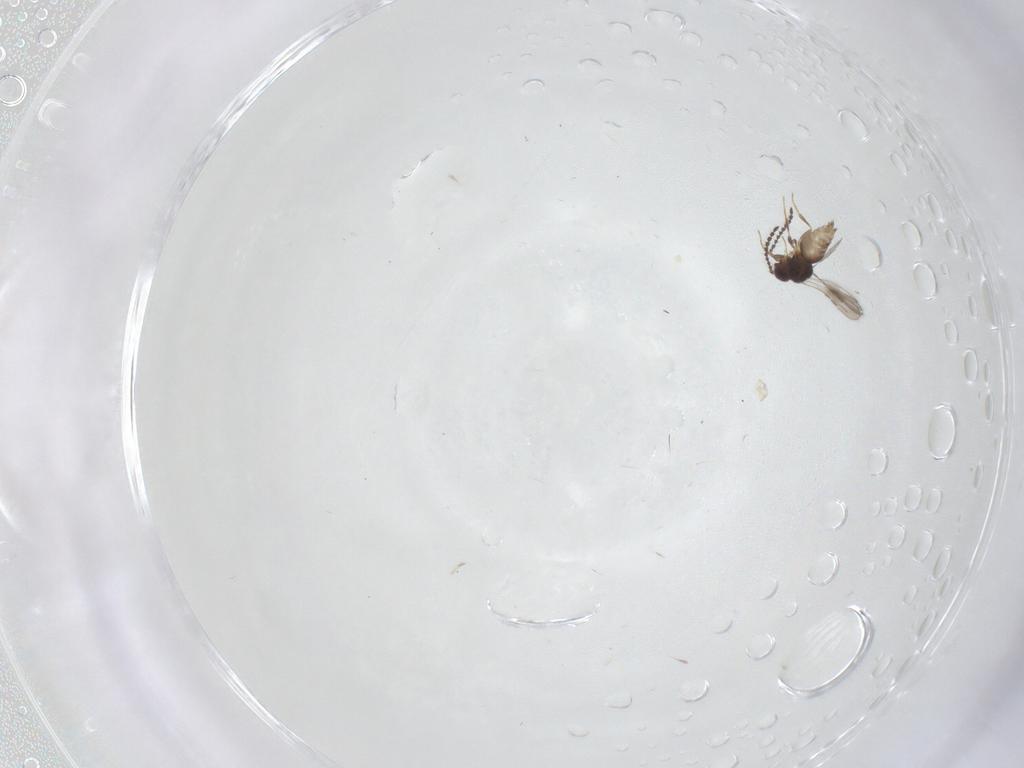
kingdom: Animalia
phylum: Arthropoda
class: Insecta
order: Hymenoptera
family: Ceraphronidae
